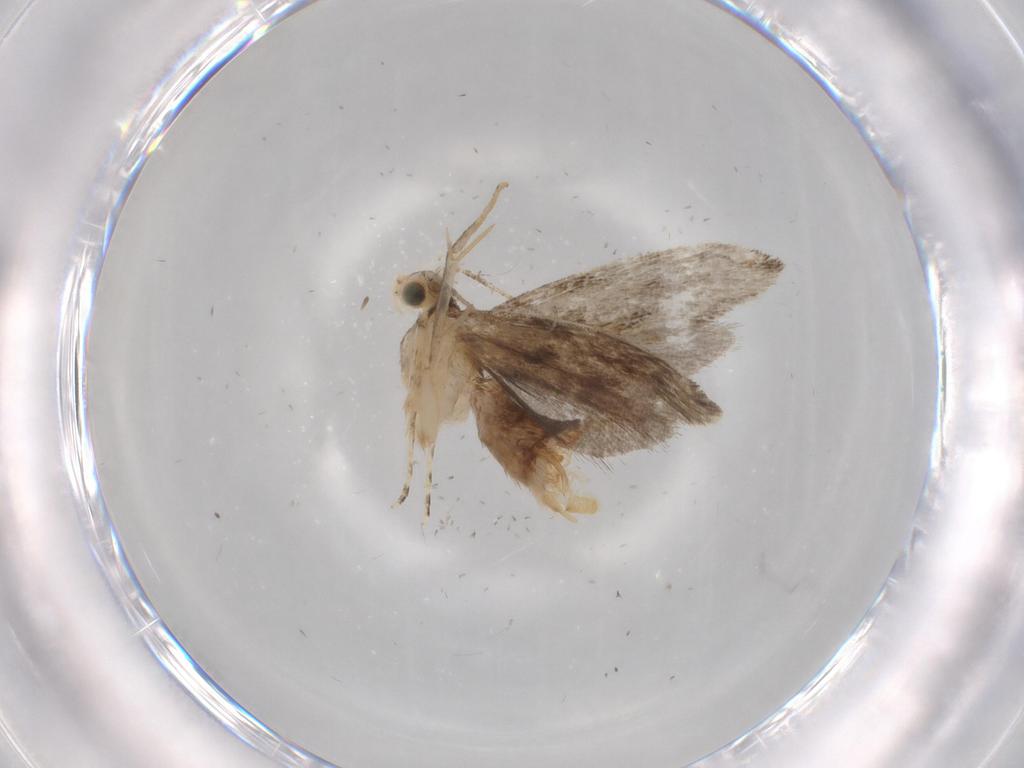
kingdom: Animalia
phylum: Arthropoda
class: Insecta
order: Lepidoptera
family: Tineidae
